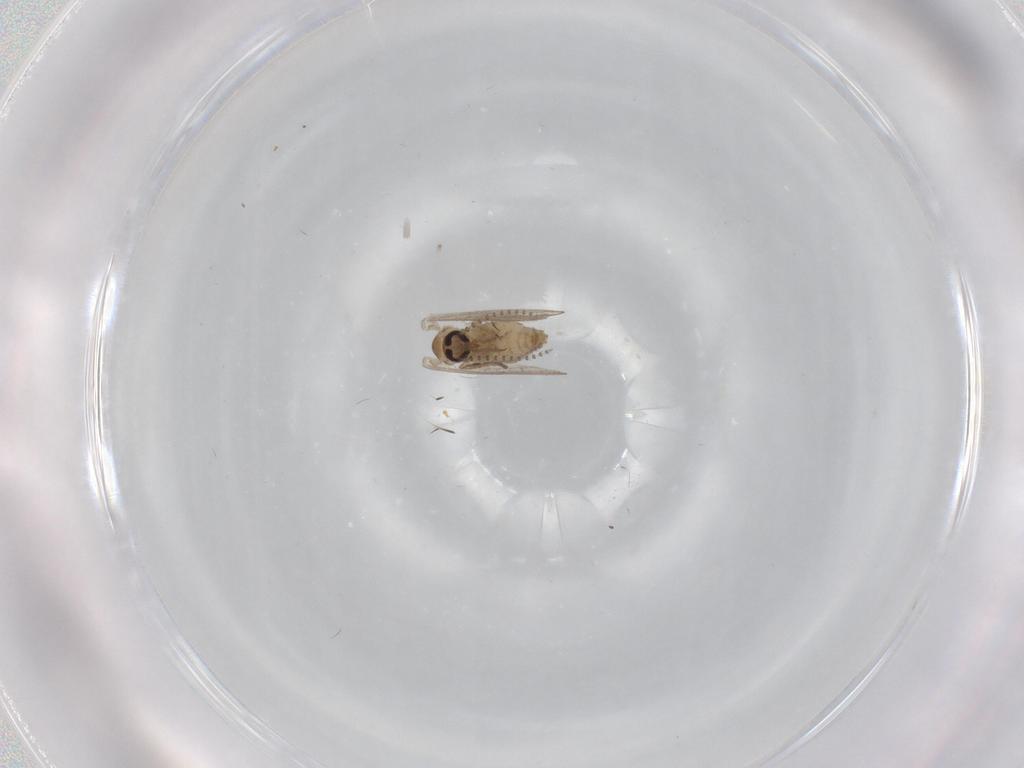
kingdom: Animalia
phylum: Arthropoda
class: Insecta
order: Diptera
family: Psychodidae
